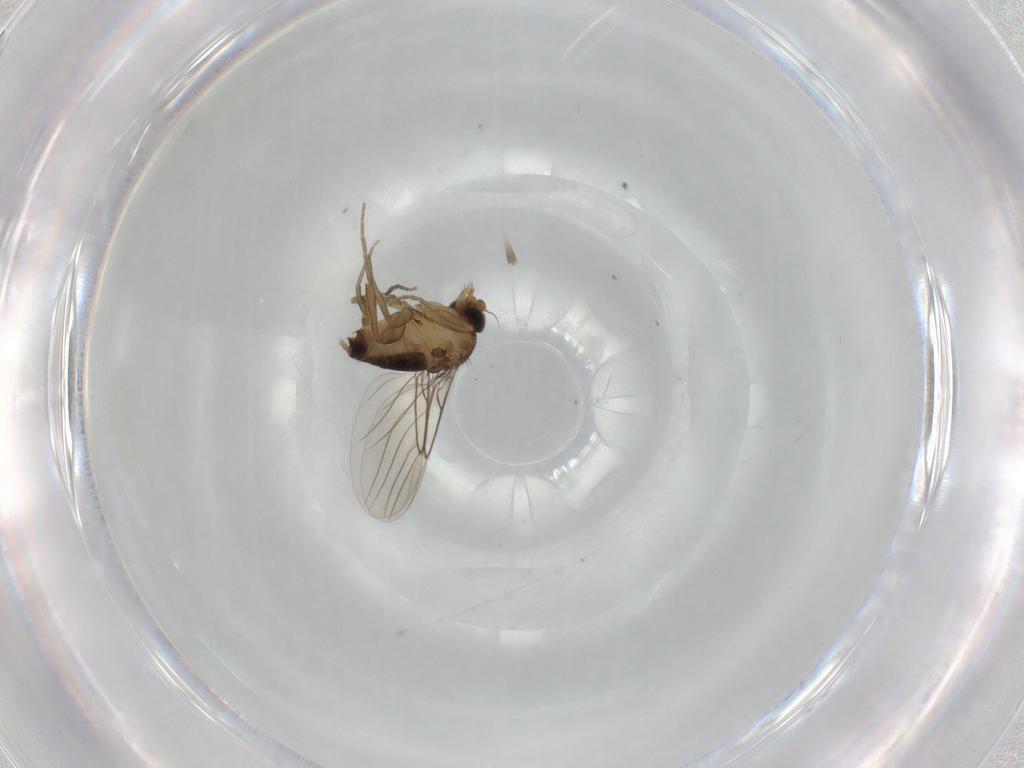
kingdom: Animalia
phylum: Arthropoda
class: Insecta
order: Diptera
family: Phoridae
